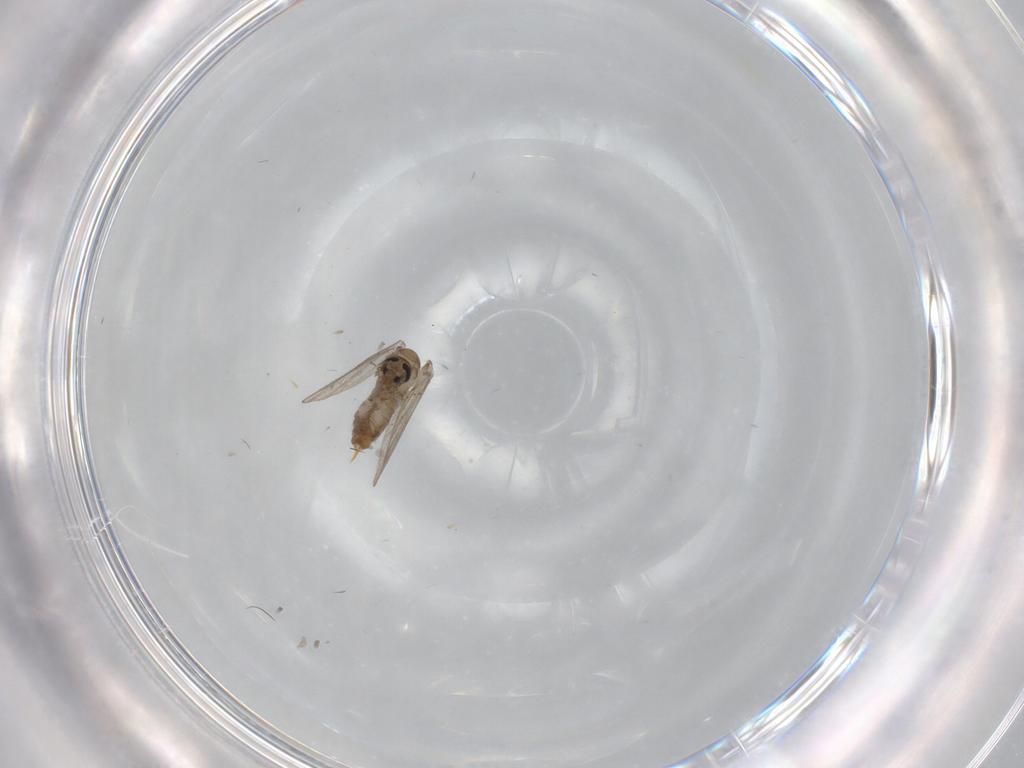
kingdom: Animalia
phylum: Arthropoda
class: Insecta
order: Diptera
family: Psychodidae
